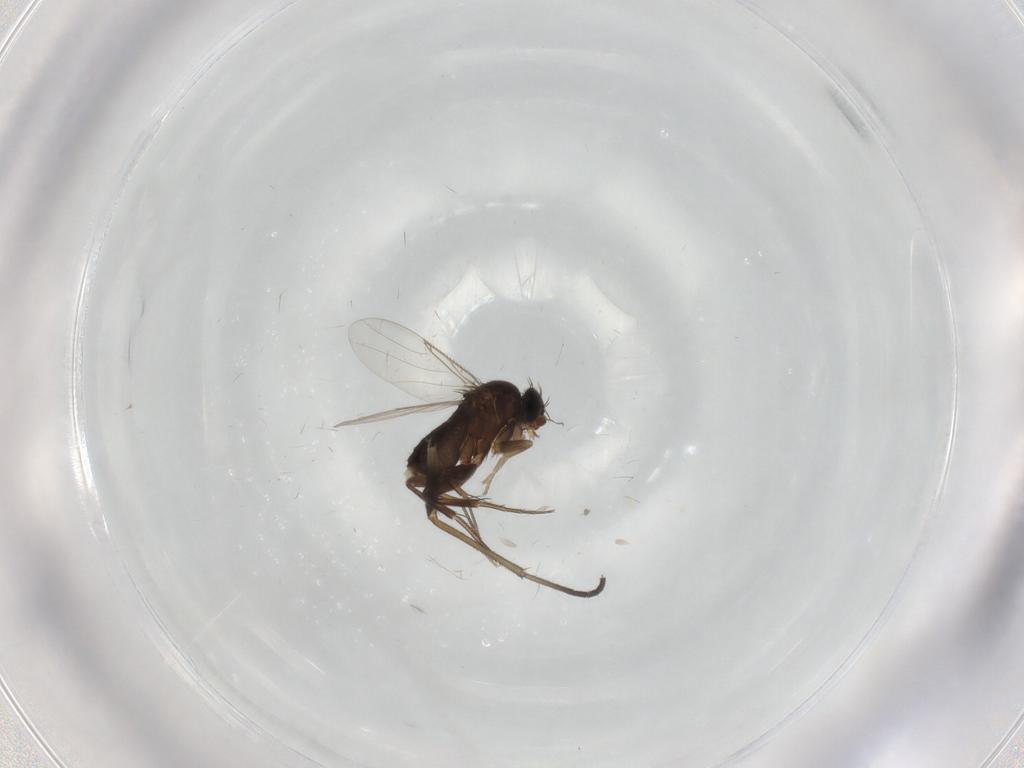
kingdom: Animalia
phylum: Arthropoda
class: Insecta
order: Diptera
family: Phoridae
